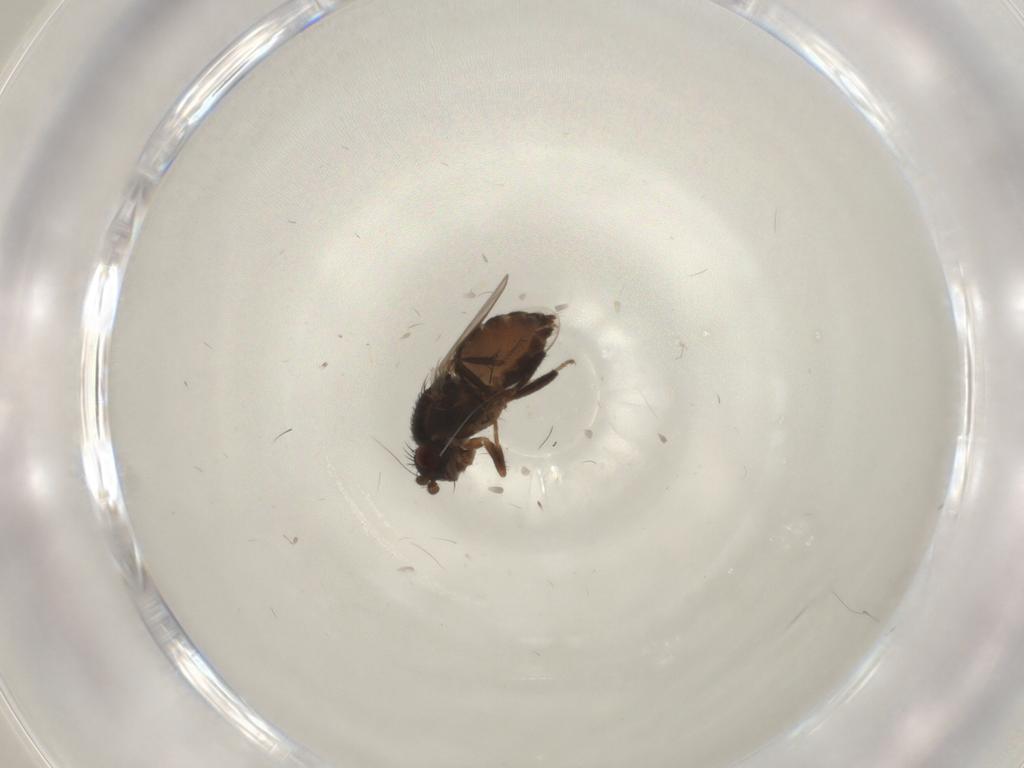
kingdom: Animalia
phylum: Arthropoda
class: Insecta
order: Diptera
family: Sphaeroceridae
